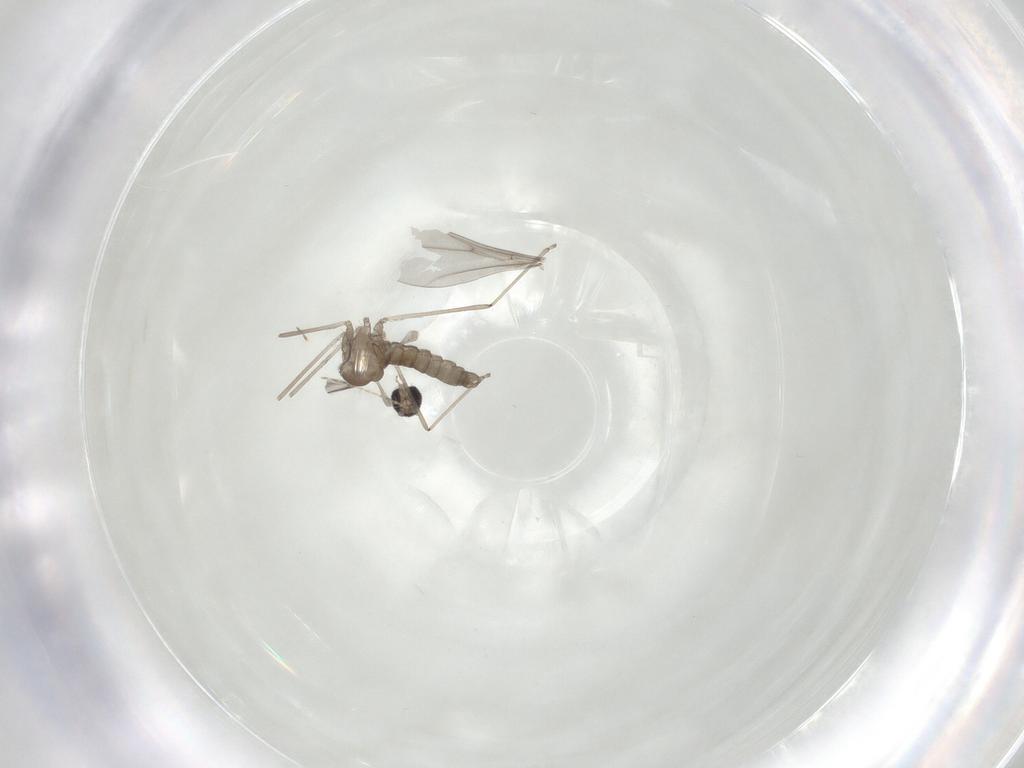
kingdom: Animalia
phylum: Arthropoda
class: Insecta
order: Diptera
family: Cecidomyiidae
